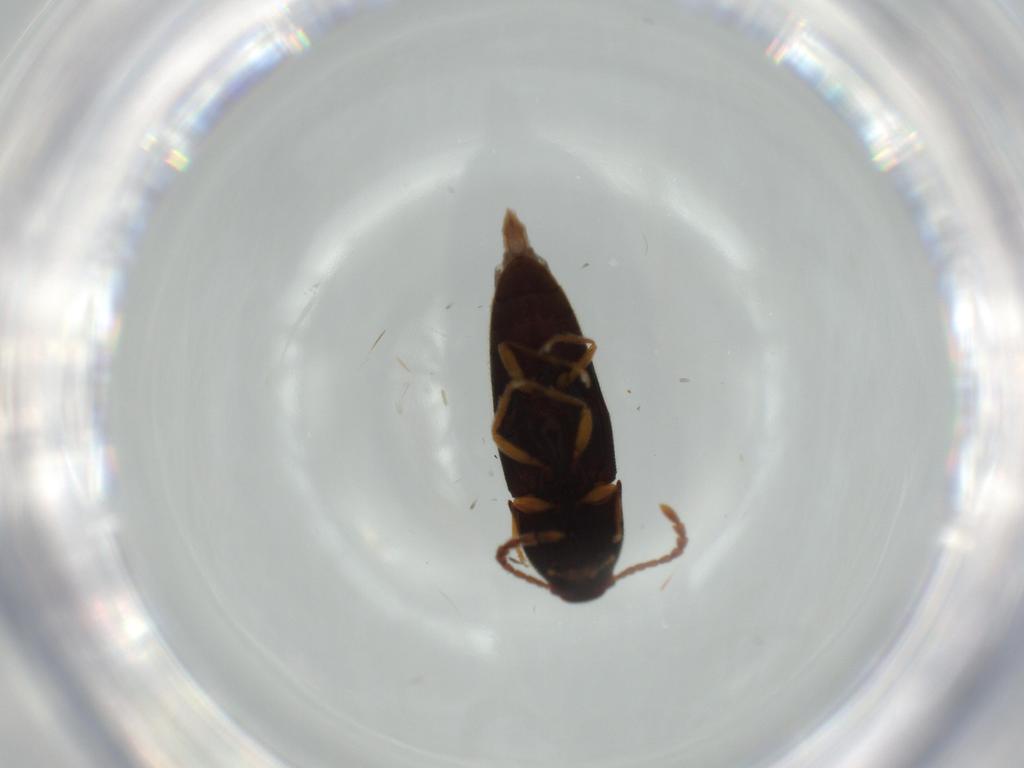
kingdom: Animalia
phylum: Arthropoda
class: Insecta
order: Coleoptera
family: Elateridae
